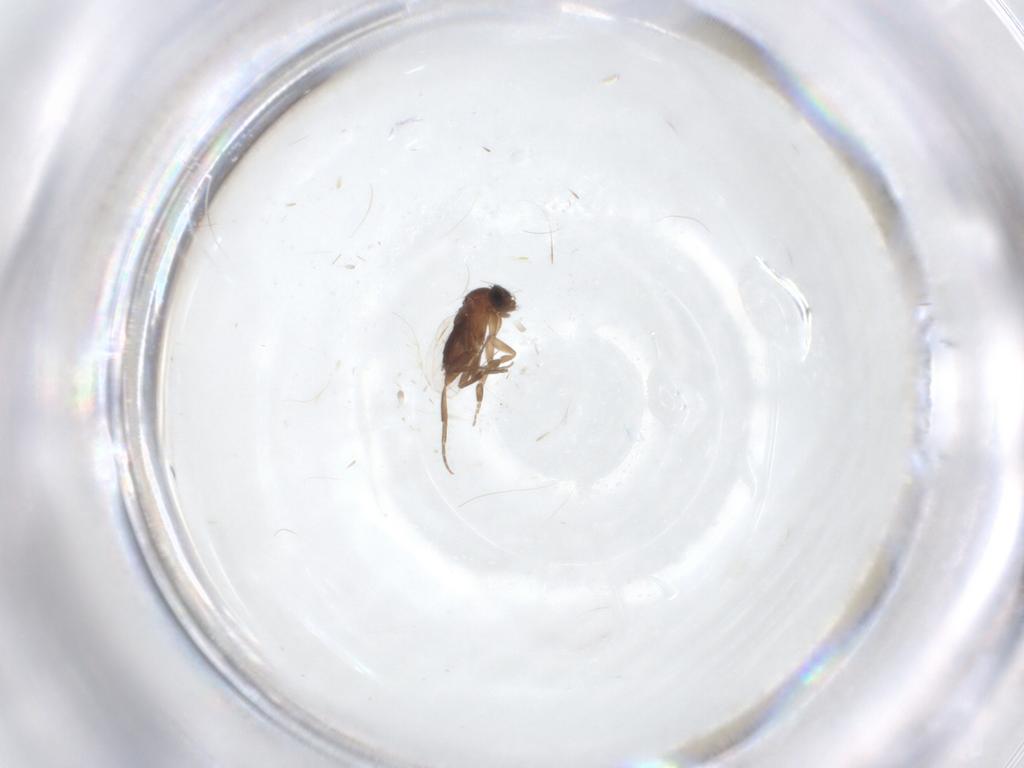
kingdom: Animalia
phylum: Arthropoda
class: Insecta
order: Diptera
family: Phoridae
